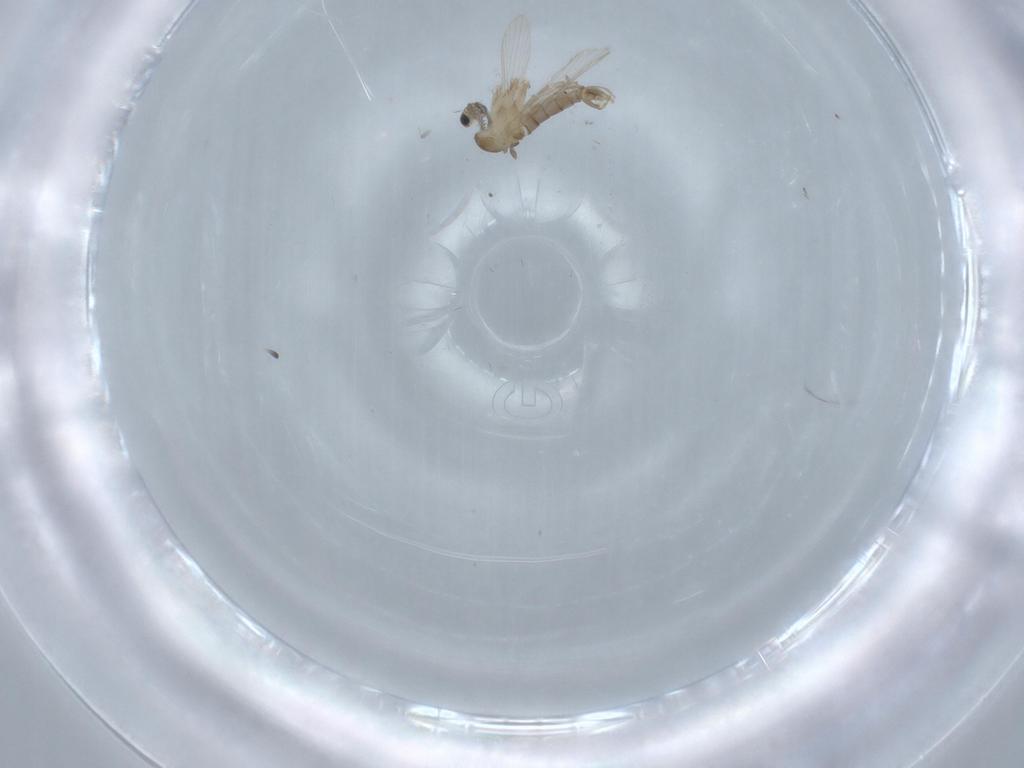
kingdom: Animalia
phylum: Arthropoda
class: Insecta
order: Diptera
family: Psychodidae
